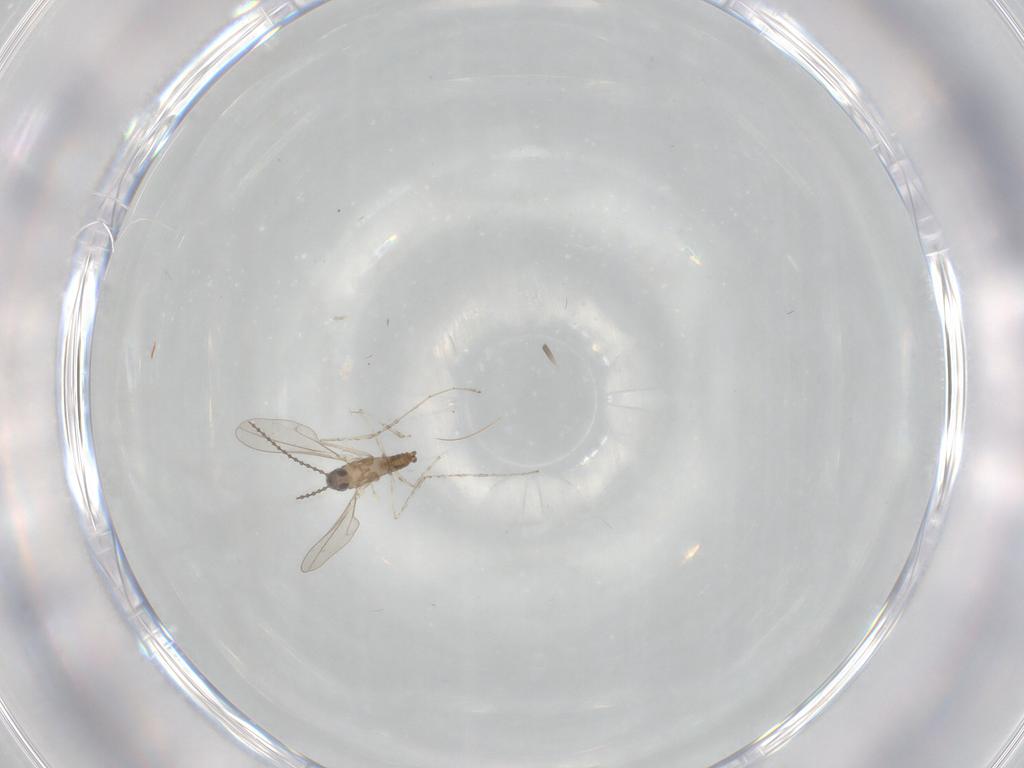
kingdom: Animalia
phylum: Arthropoda
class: Insecta
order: Diptera
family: Cecidomyiidae
